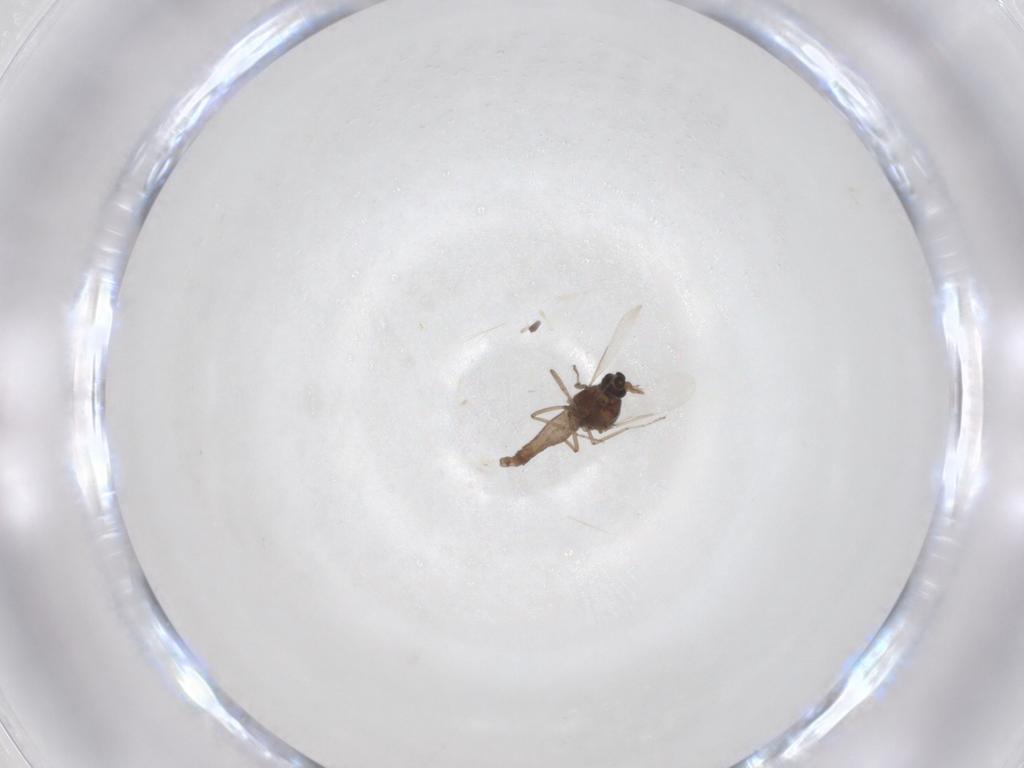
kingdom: Animalia
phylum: Arthropoda
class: Insecta
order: Diptera
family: Ceratopogonidae
